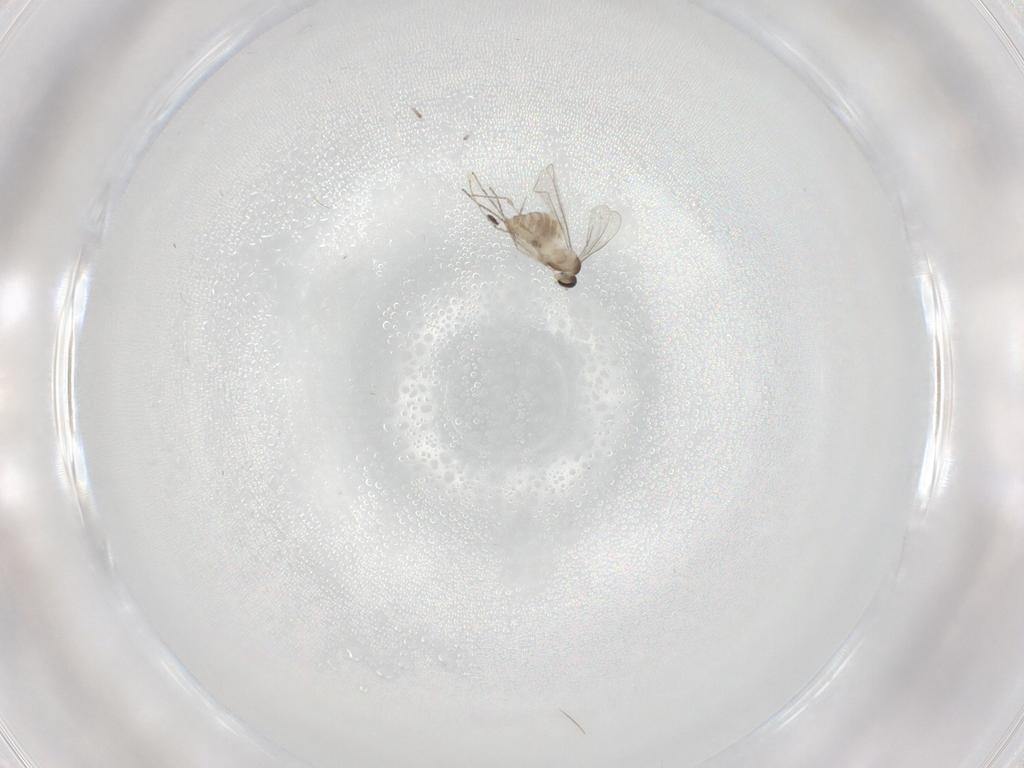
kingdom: Animalia
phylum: Arthropoda
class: Insecta
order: Diptera
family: Cecidomyiidae
